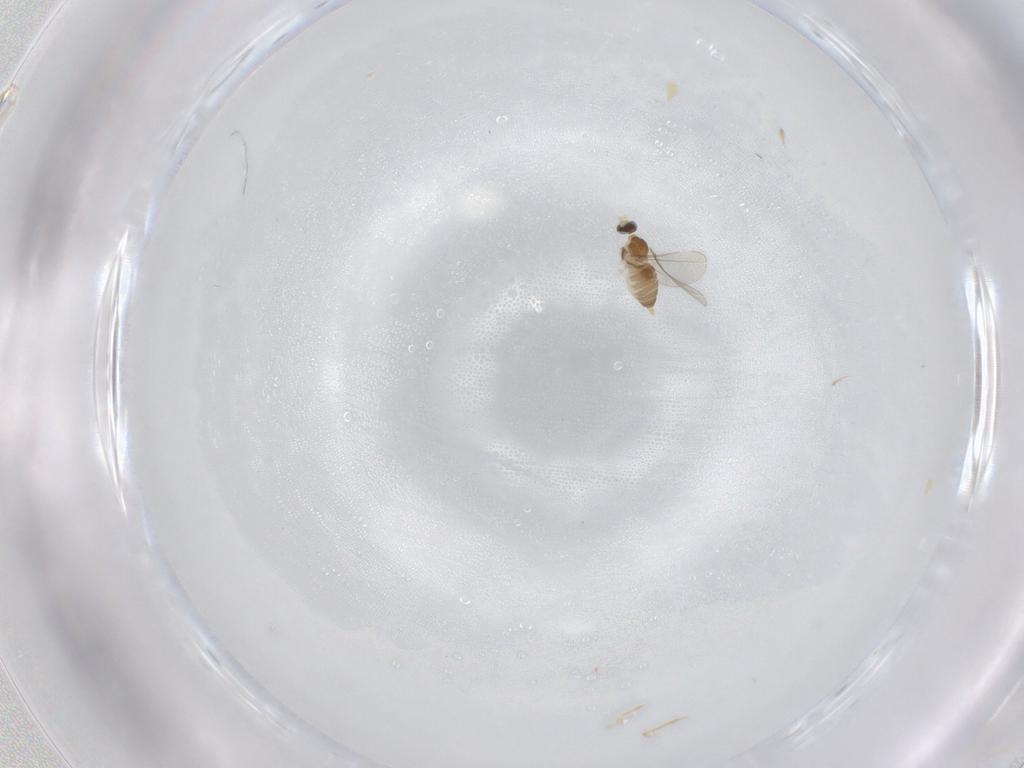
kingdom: Animalia
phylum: Arthropoda
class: Insecta
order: Diptera
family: Cecidomyiidae
